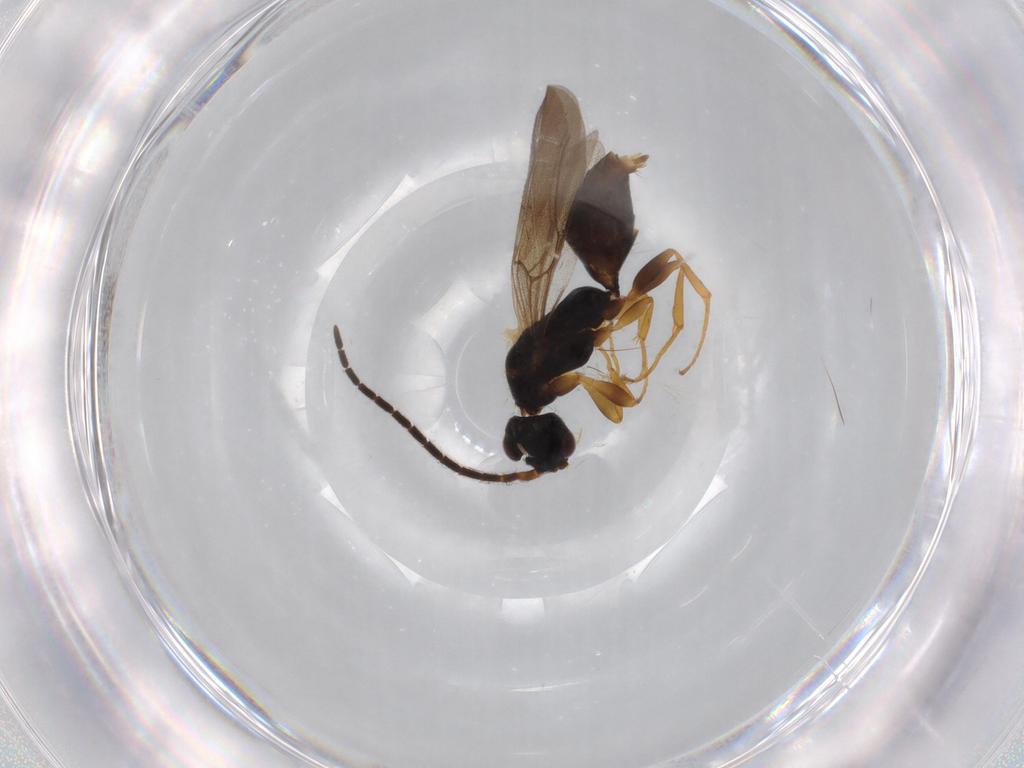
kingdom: Animalia
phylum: Arthropoda
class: Insecta
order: Hymenoptera
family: Bethylidae
